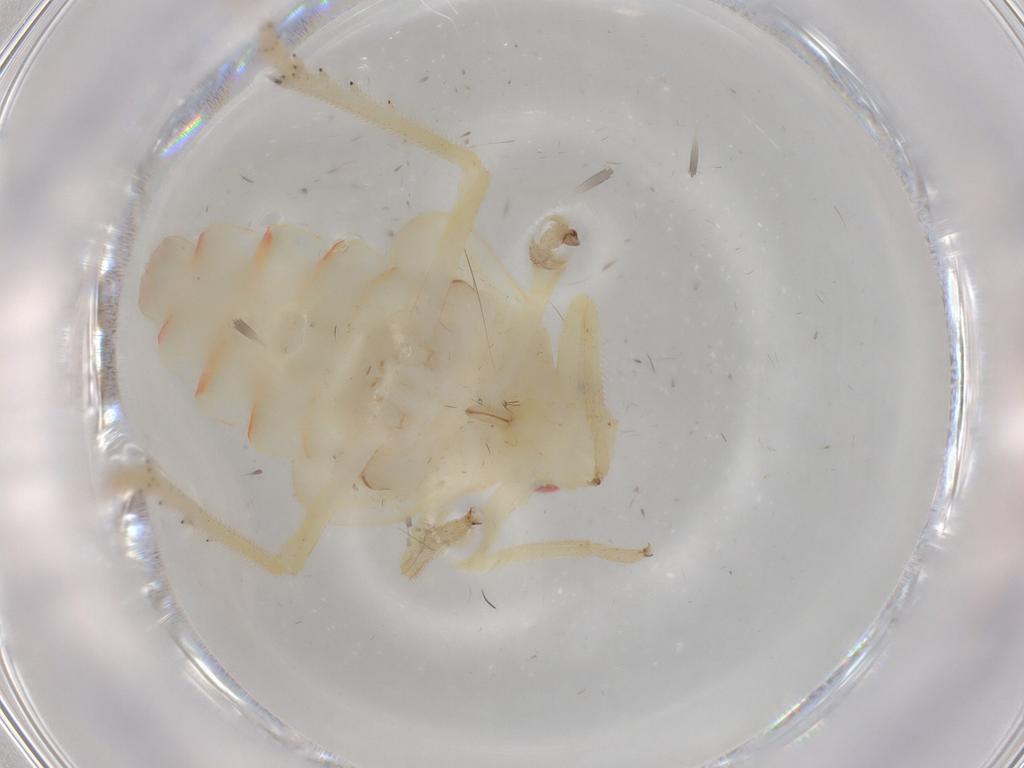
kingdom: Animalia
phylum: Arthropoda
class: Insecta
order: Hemiptera
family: Tropiduchidae
